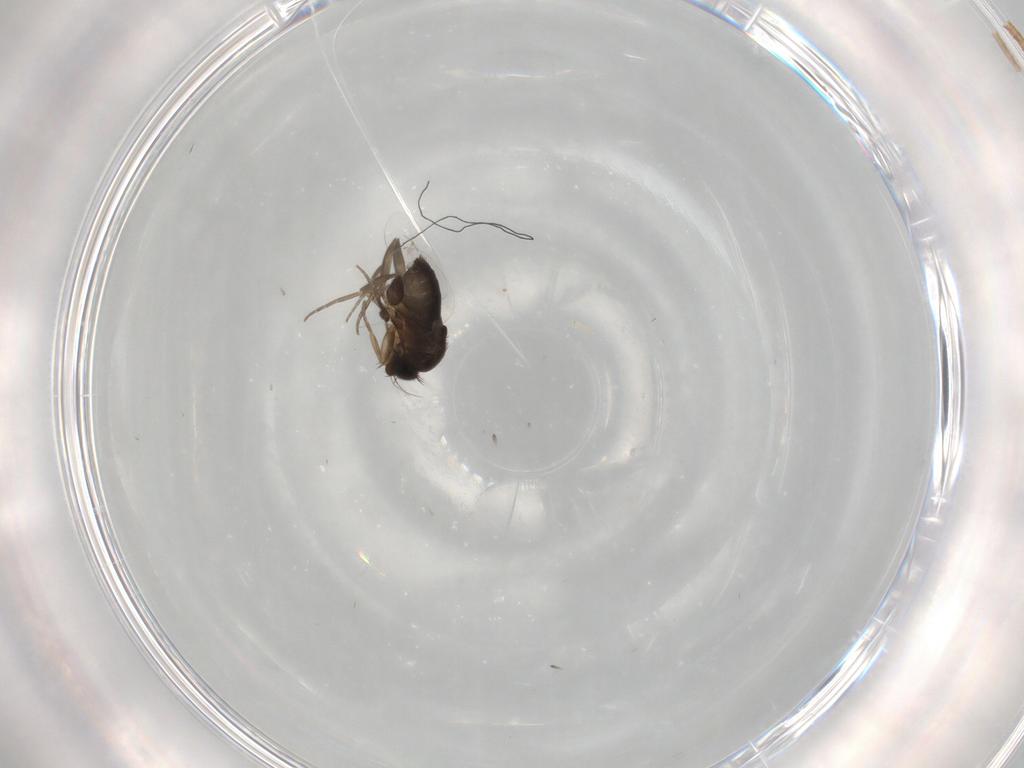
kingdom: Animalia
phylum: Arthropoda
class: Insecta
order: Diptera
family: Phoridae
